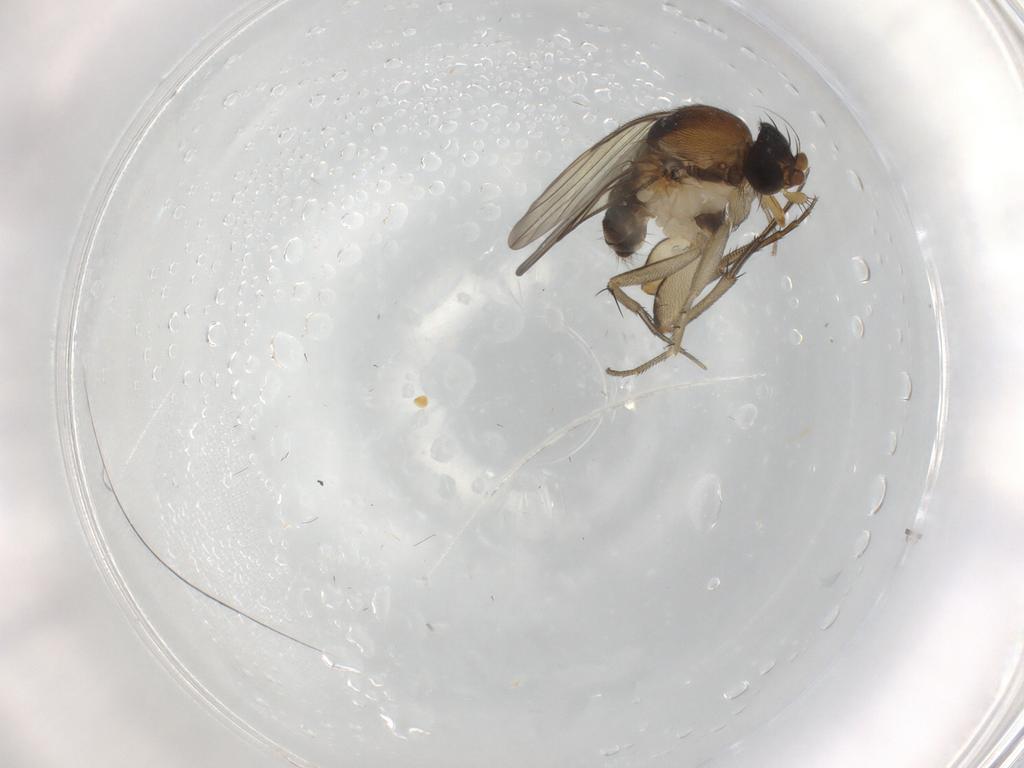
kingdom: Animalia
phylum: Arthropoda
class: Insecta
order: Diptera
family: Phoridae
